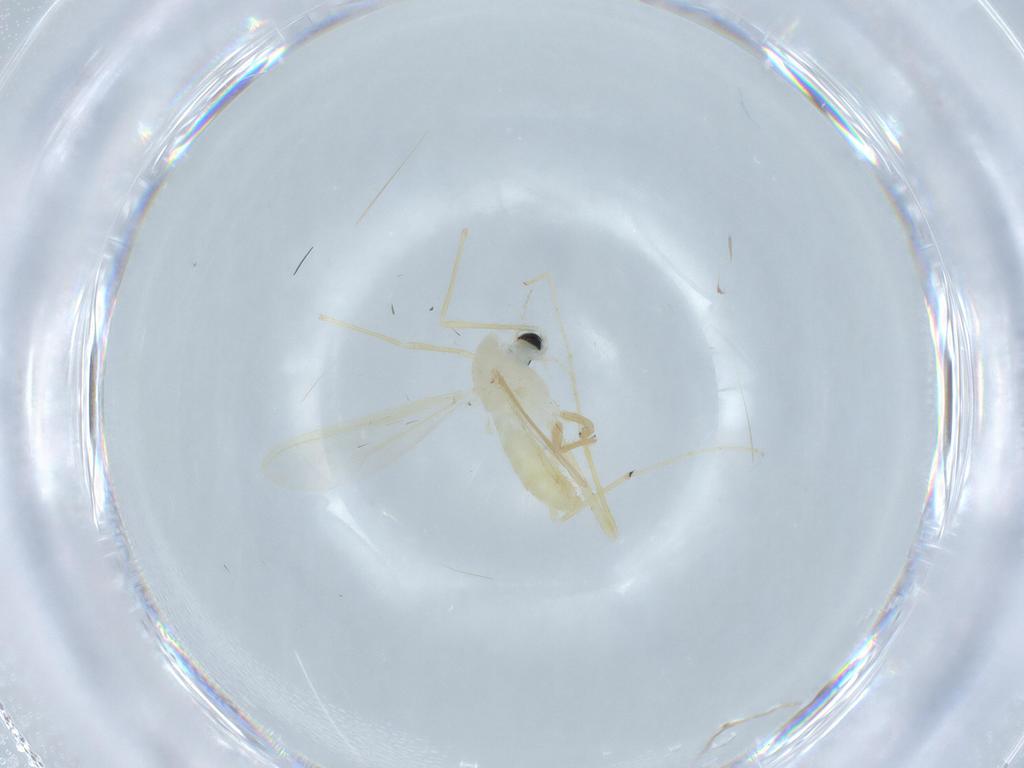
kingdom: Animalia
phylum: Arthropoda
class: Insecta
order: Diptera
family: Chironomidae
